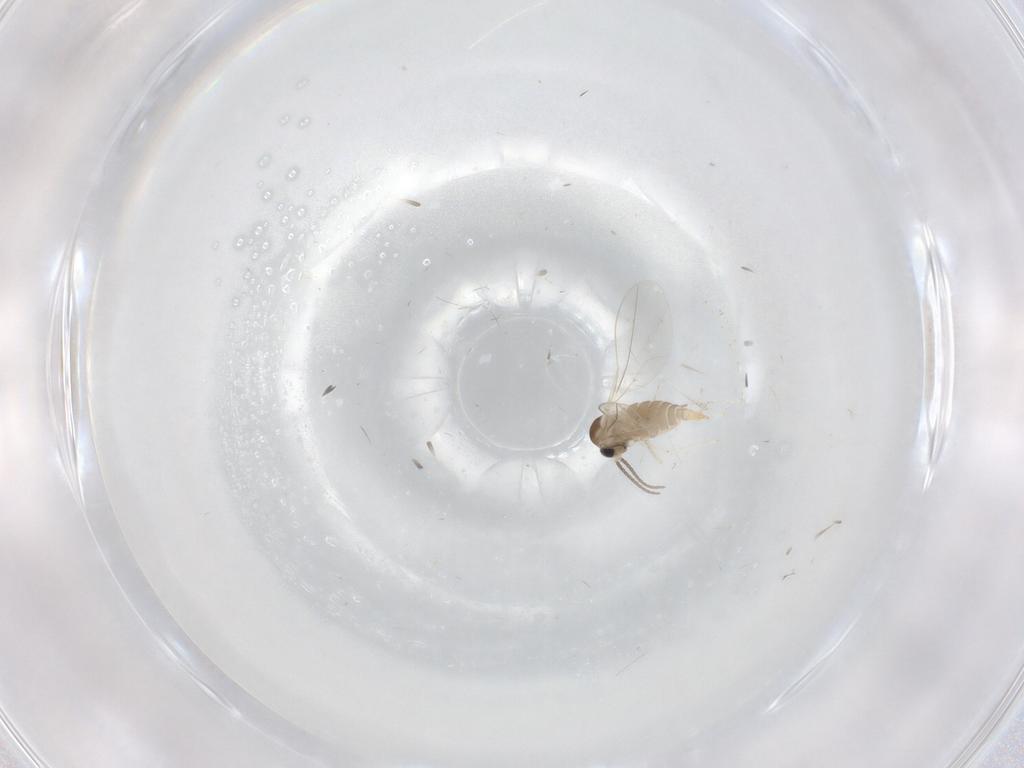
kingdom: Animalia
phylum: Arthropoda
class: Insecta
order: Diptera
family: Cecidomyiidae
